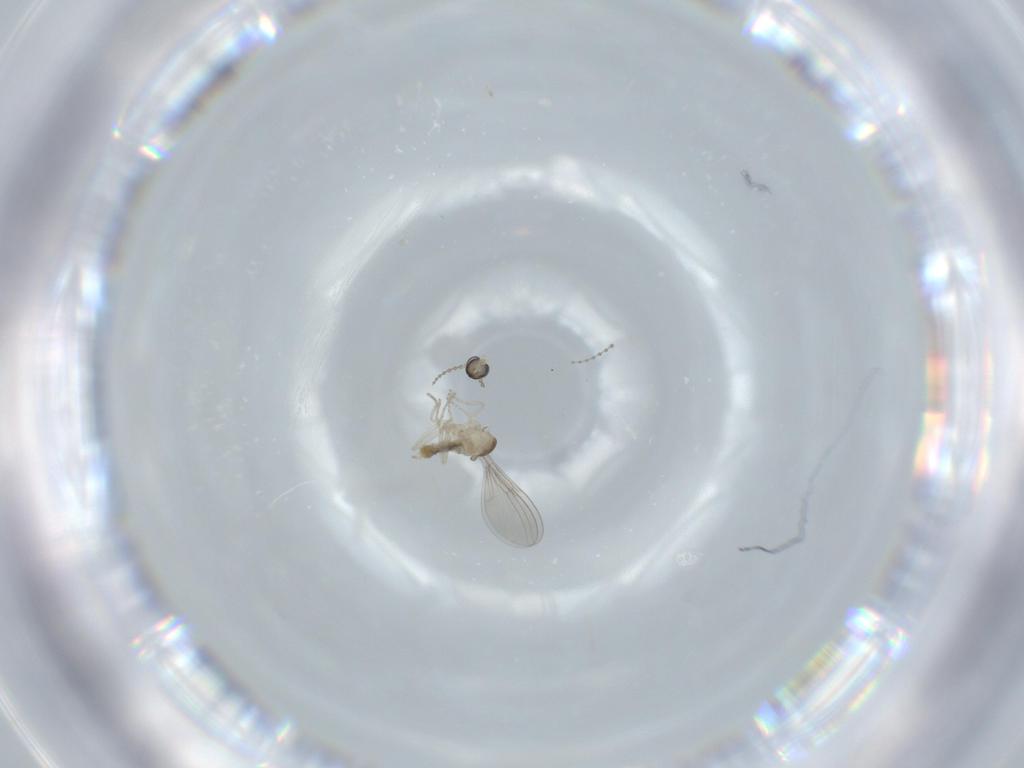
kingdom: Animalia
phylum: Arthropoda
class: Insecta
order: Diptera
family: Cecidomyiidae
